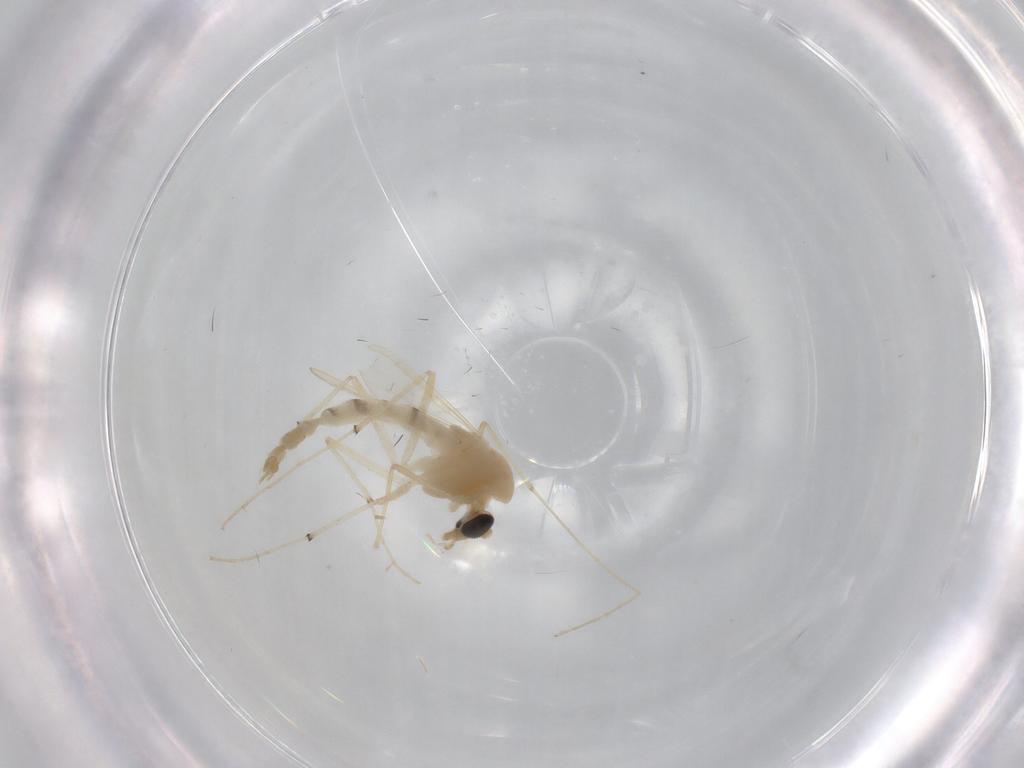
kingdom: Animalia
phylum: Arthropoda
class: Insecta
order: Diptera
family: Chironomidae
